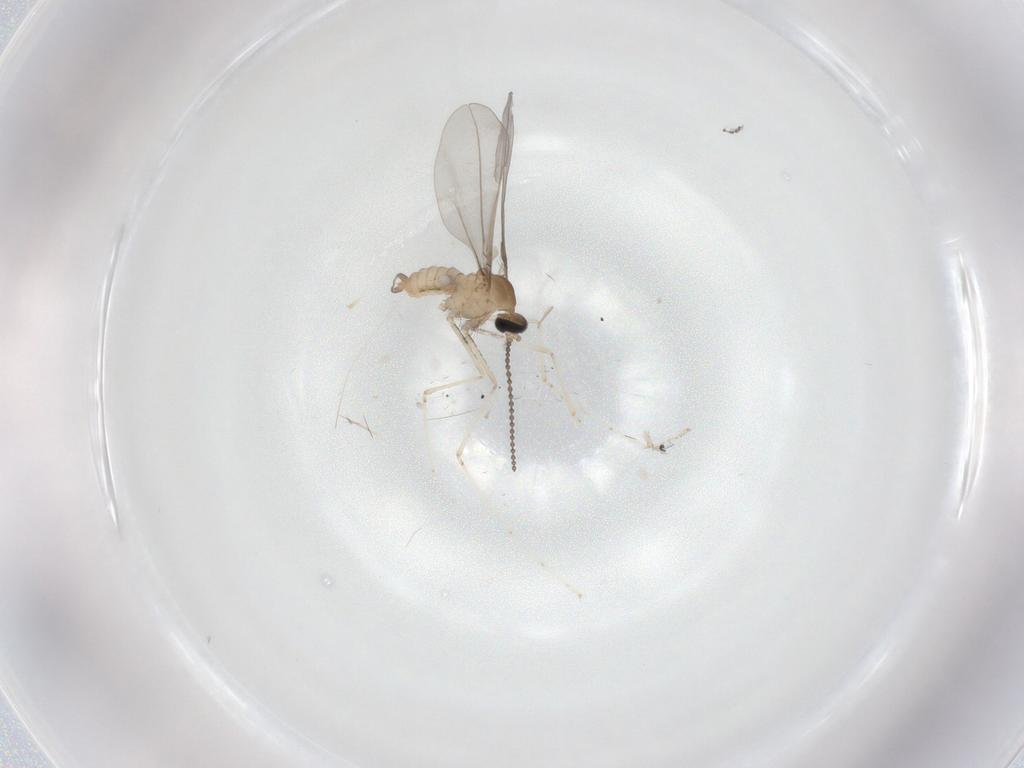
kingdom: Animalia
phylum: Arthropoda
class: Insecta
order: Diptera
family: Cecidomyiidae
